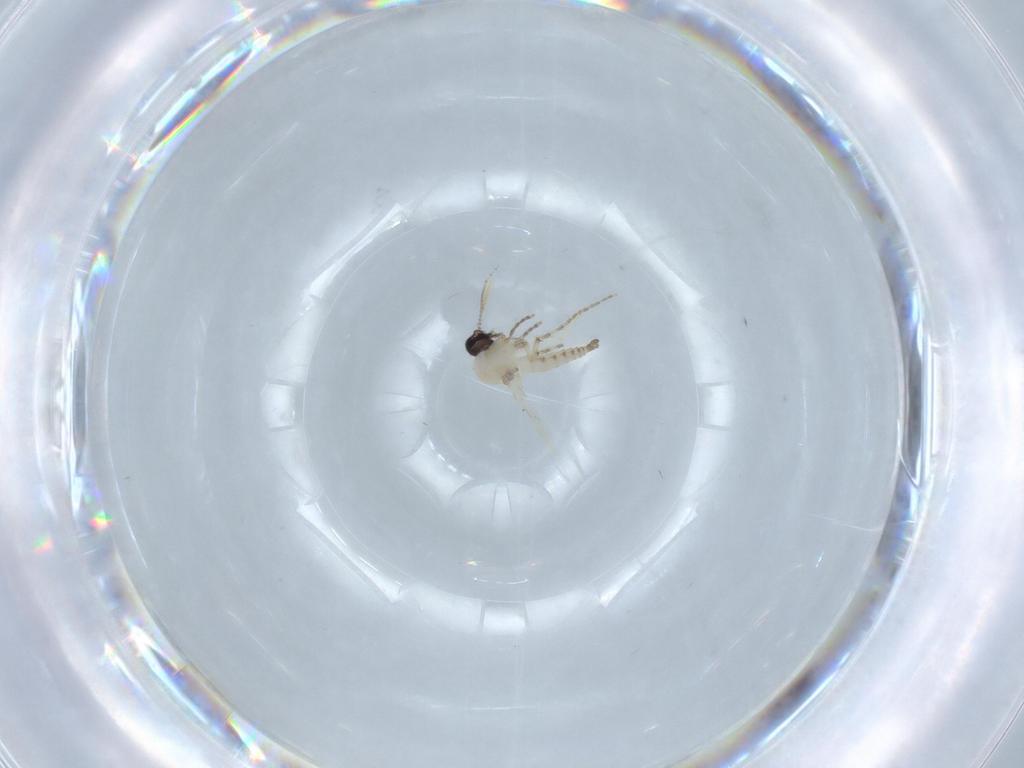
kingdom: Animalia
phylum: Arthropoda
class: Insecta
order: Diptera
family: Ceratopogonidae
